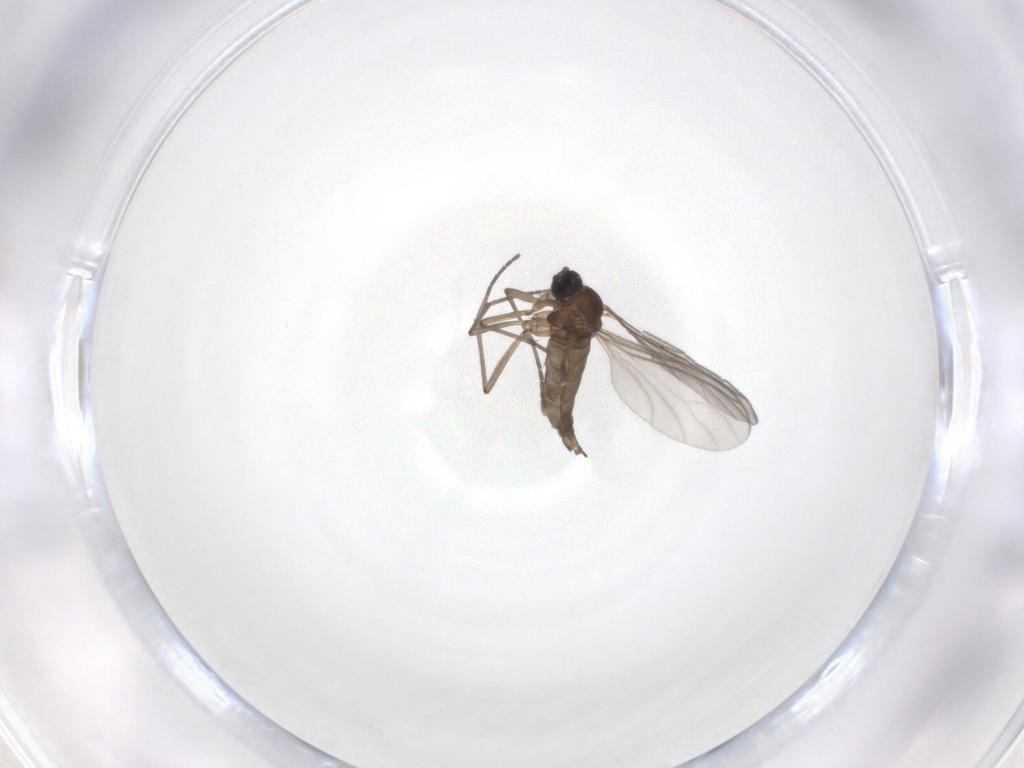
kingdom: Animalia
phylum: Arthropoda
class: Insecta
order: Diptera
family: Sciaridae
